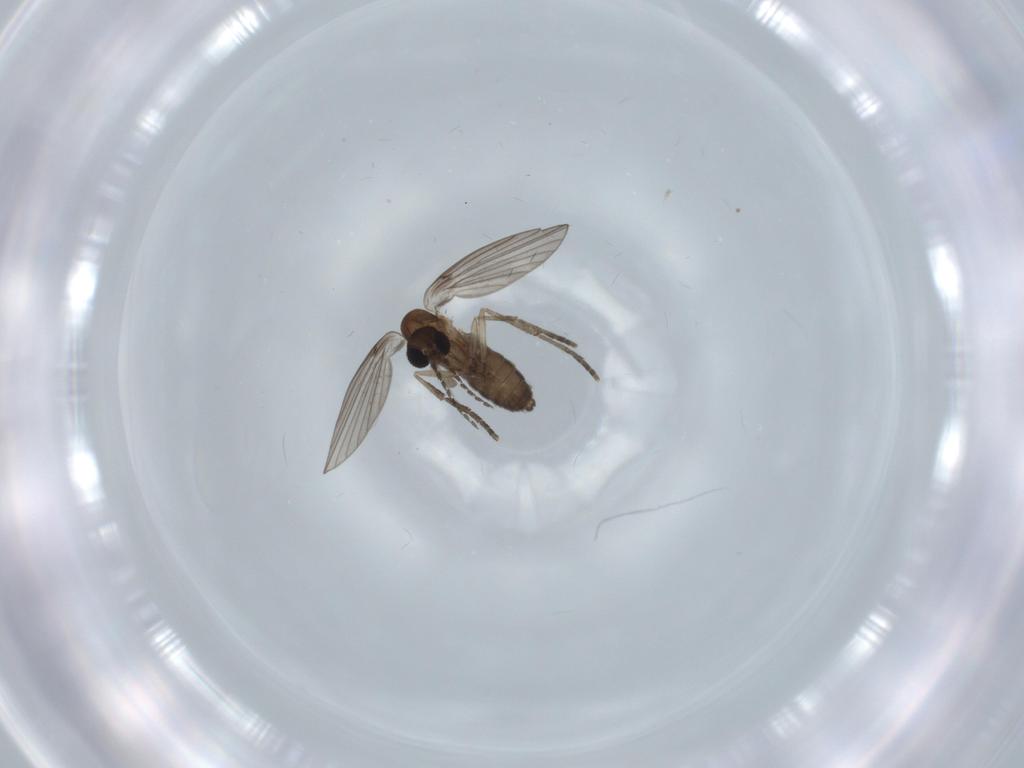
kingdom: Animalia
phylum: Arthropoda
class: Insecta
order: Diptera
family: Psychodidae
